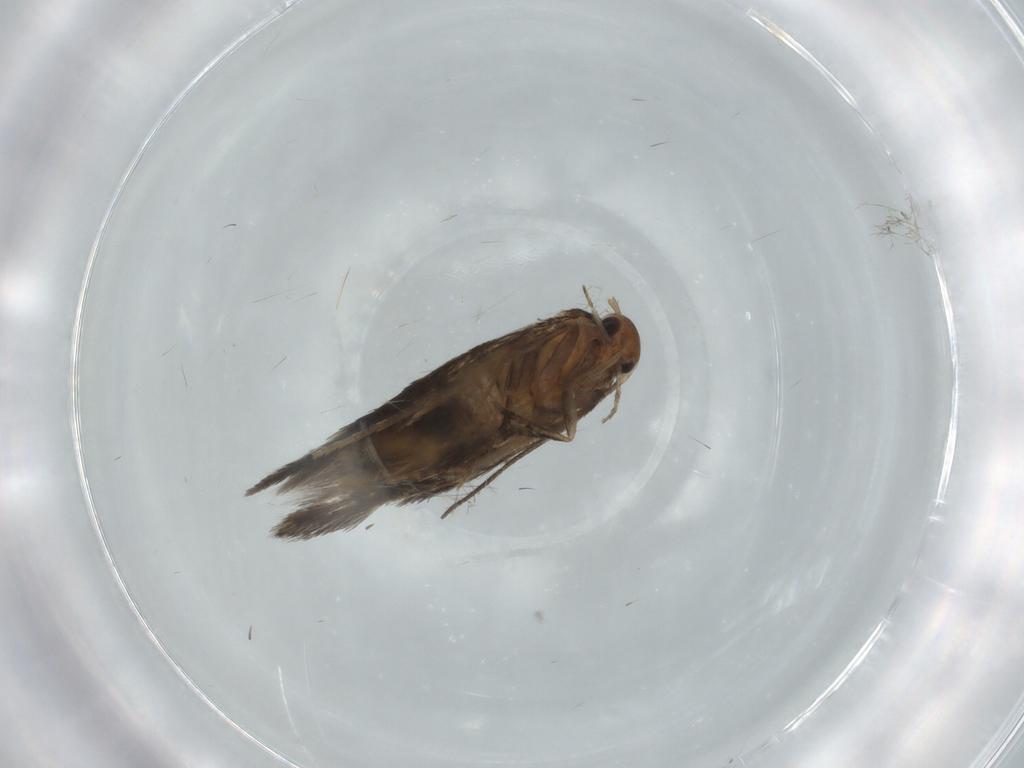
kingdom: Animalia
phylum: Arthropoda
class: Insecta
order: Lepidoptera
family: Elachistidae
